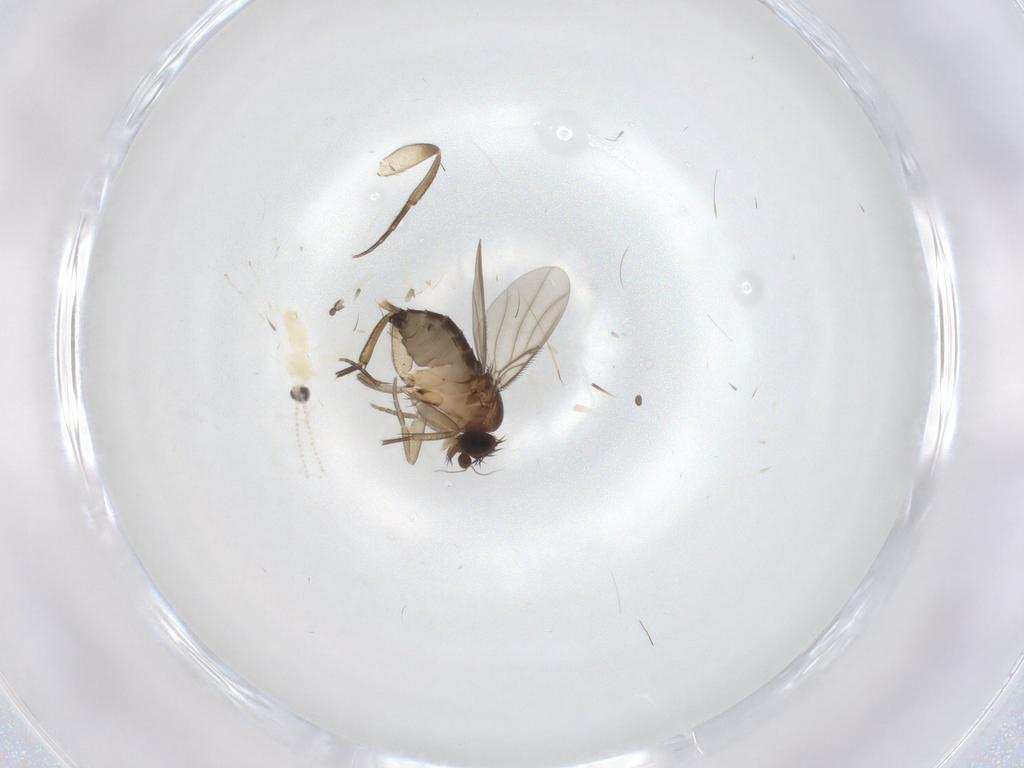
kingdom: Animalia
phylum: Arthropoda
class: Insecta
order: Diptera
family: Phoridae
